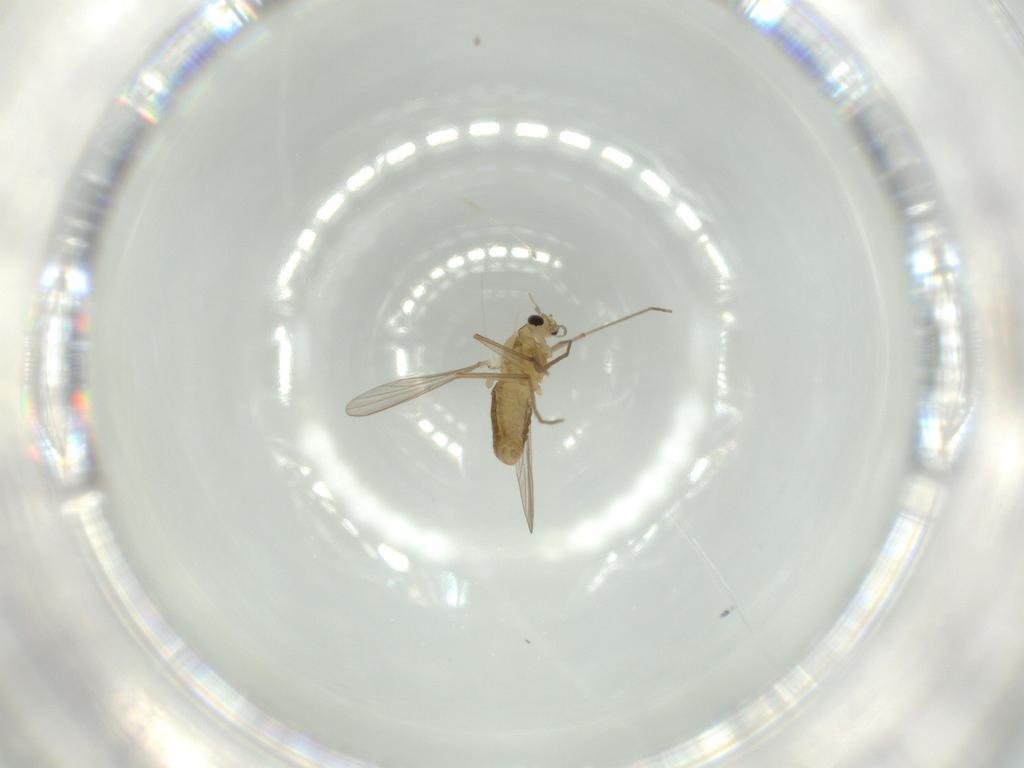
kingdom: Animalia
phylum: Arthropoda
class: Insecta
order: Diptera
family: Chironomidae
